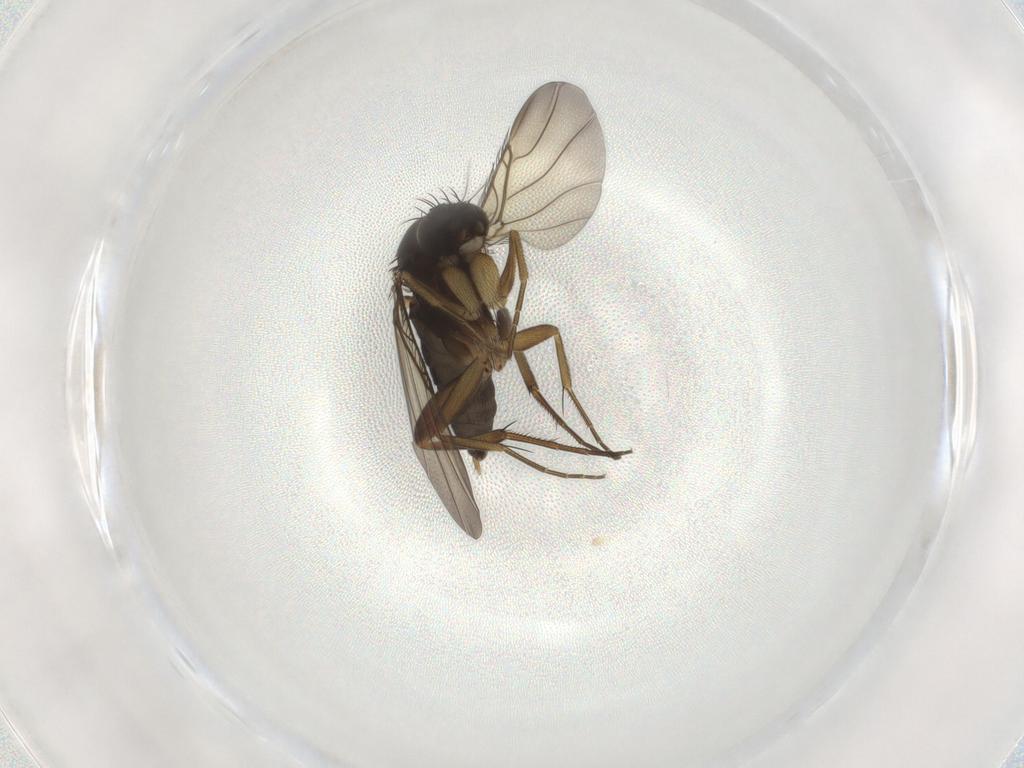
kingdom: Animalia
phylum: Arthropoda
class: Insecta
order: Diptera
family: Phoridae
